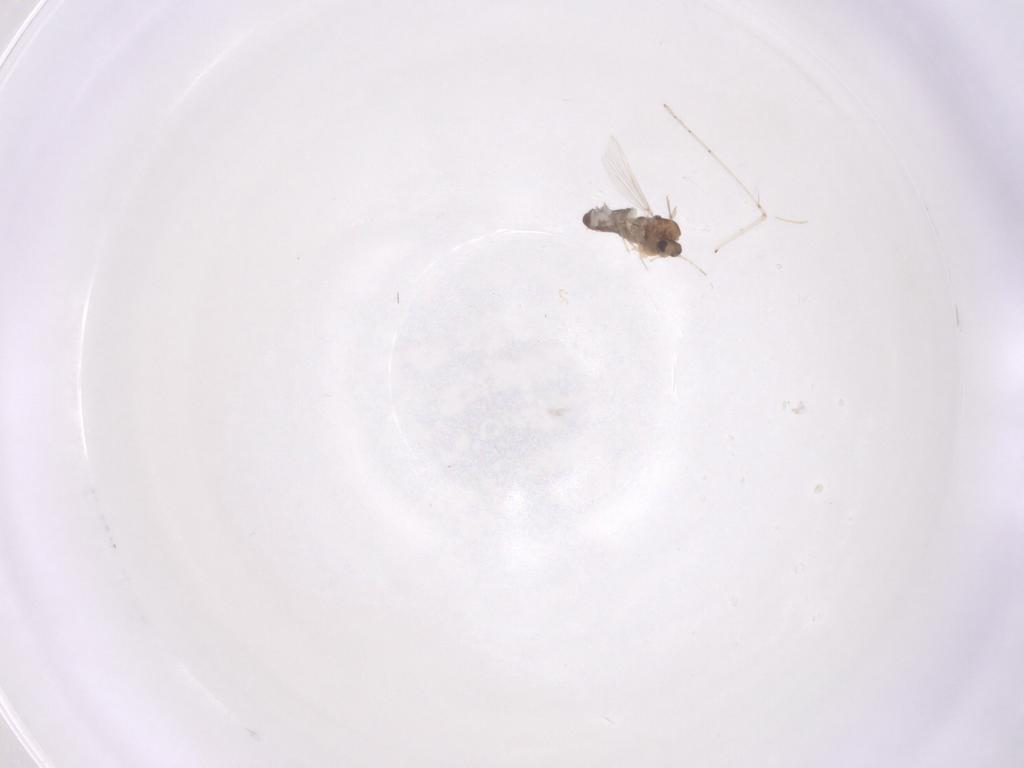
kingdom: Animalia
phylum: Arthropoda
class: Insecta
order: Diptera
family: Chironomidae
